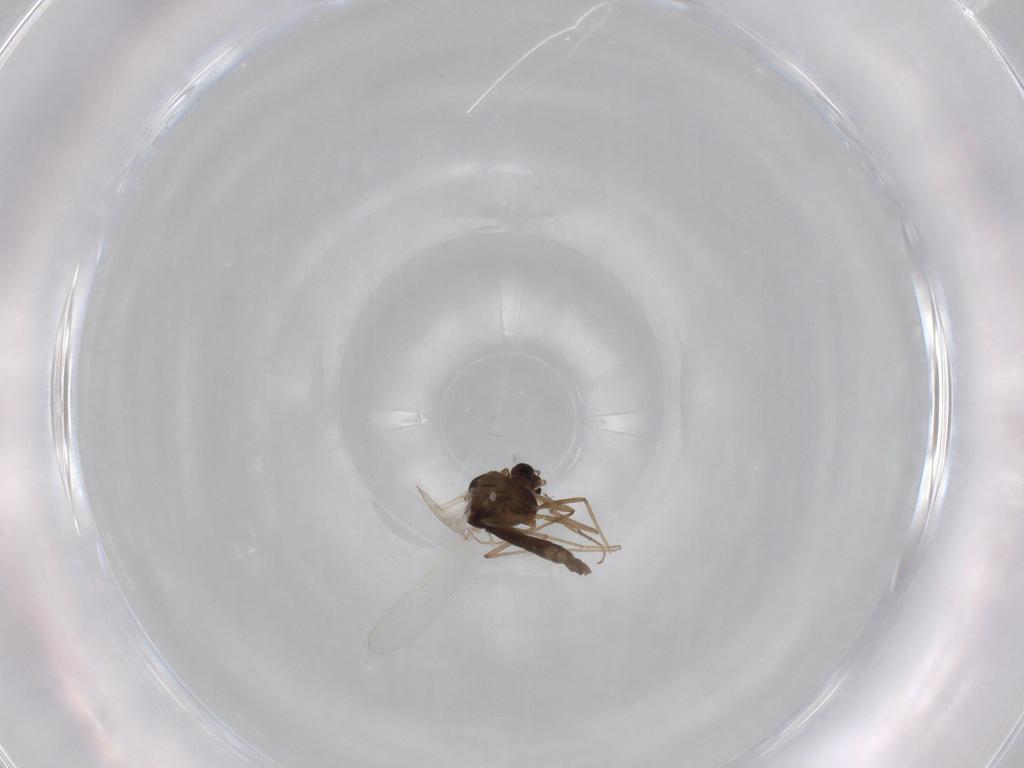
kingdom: Animalia
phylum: Arthropoda
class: Insecta
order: Diptera
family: Chironomidae
